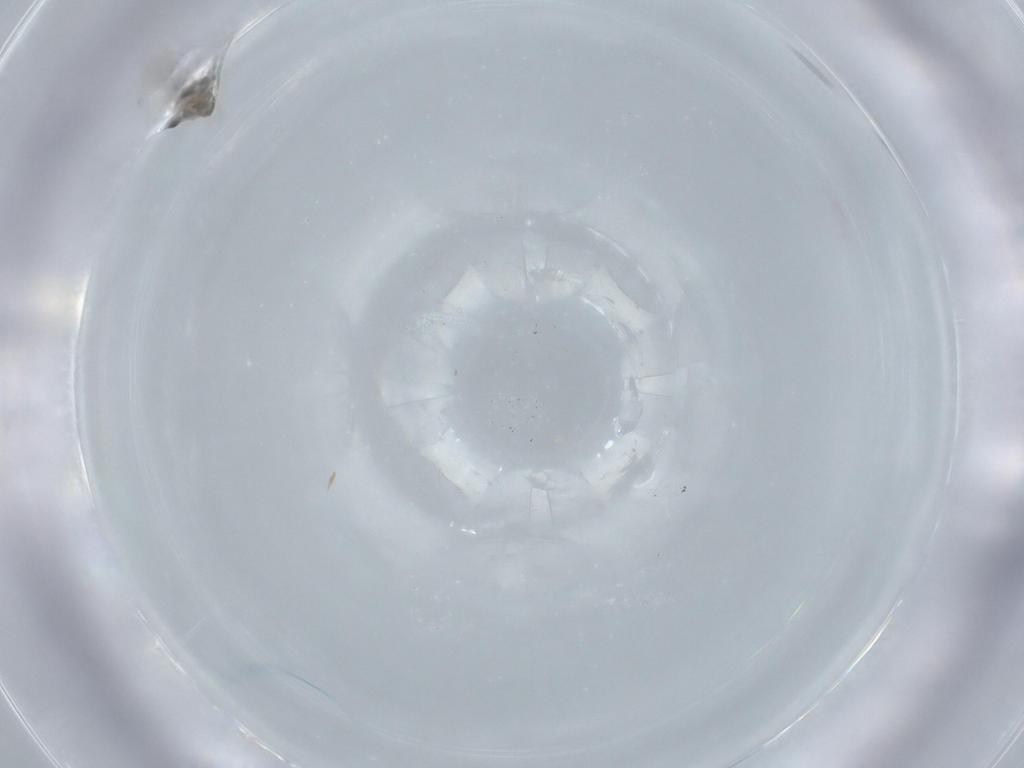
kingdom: Animalia
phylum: Arthropoda
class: Insecta
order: Diptera
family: Cecidomyiidae
